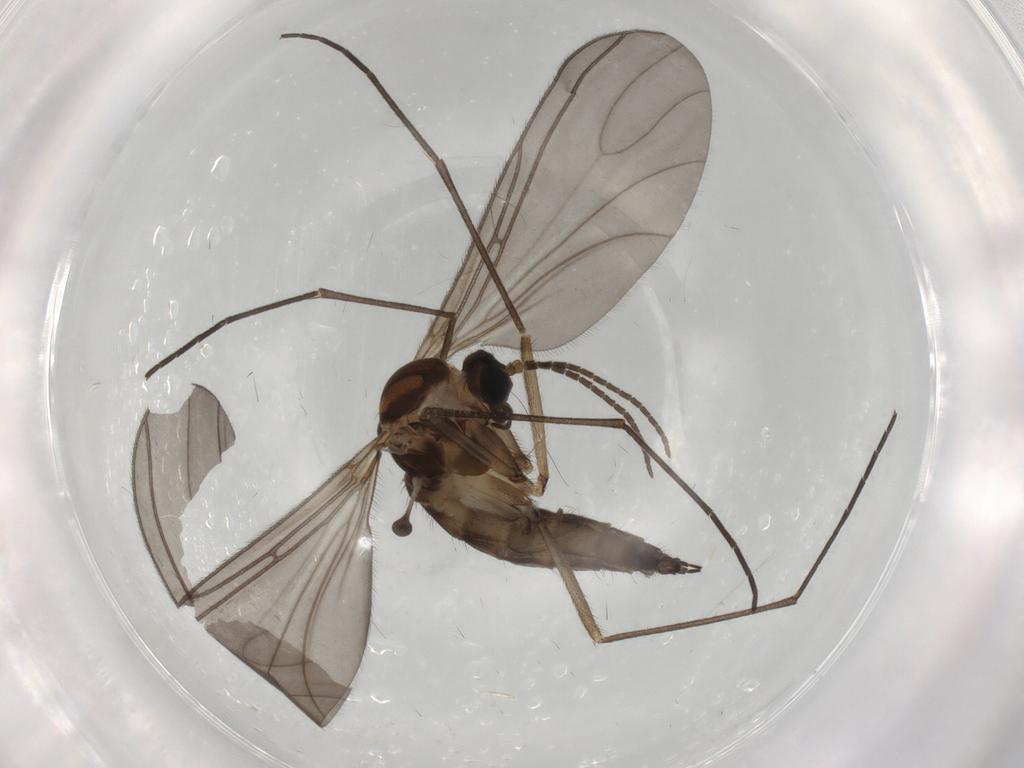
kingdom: Animalia
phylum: Arthropoda
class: Insecta
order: Diptera
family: Mycetophilidae
